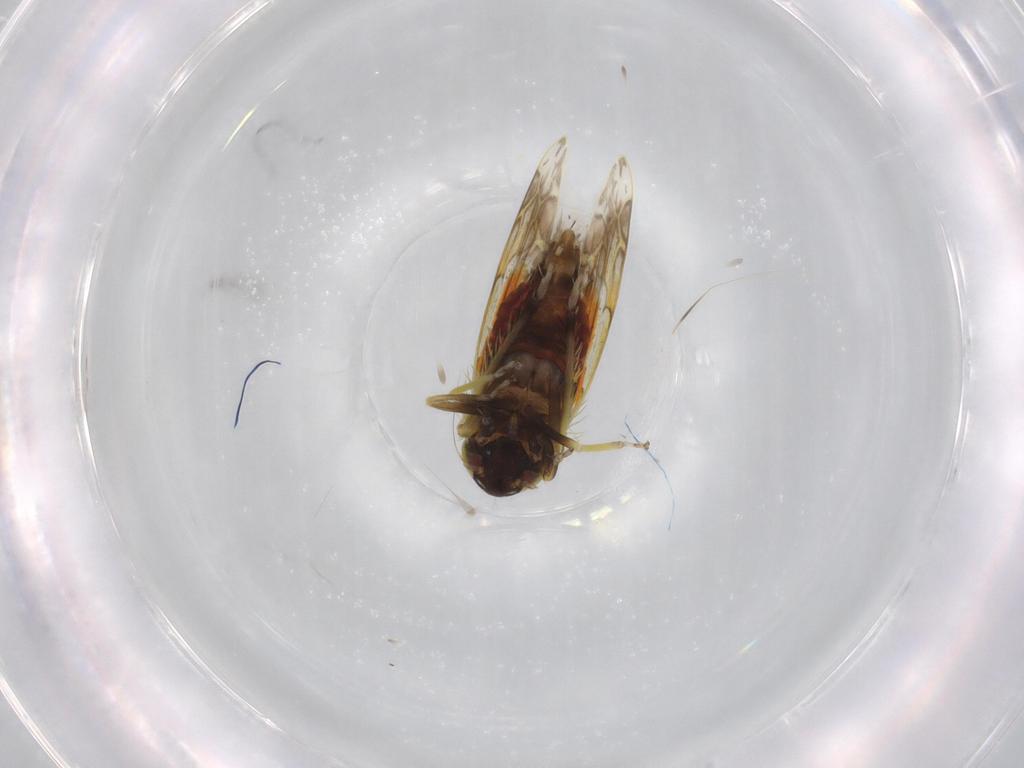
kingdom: Animalia
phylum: Arthropoda
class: Insecta
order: Hemiptera
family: Cicadellidae
